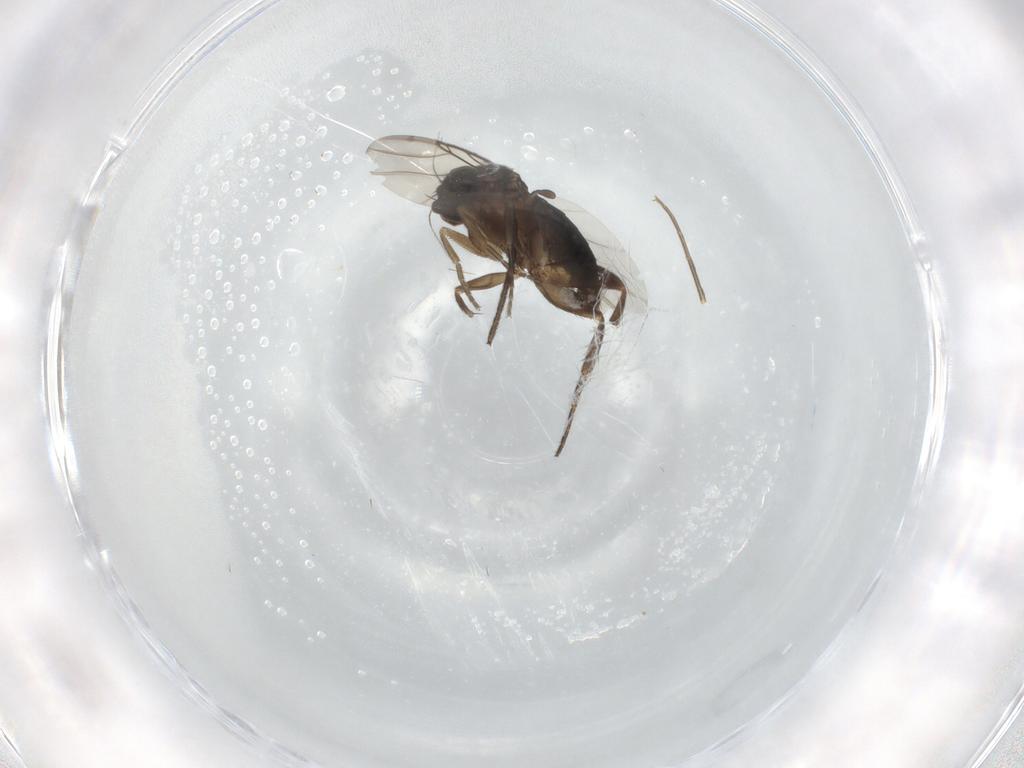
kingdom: Animalia
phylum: Arthropoda
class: Insecta
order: Diptera
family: Phoridae
